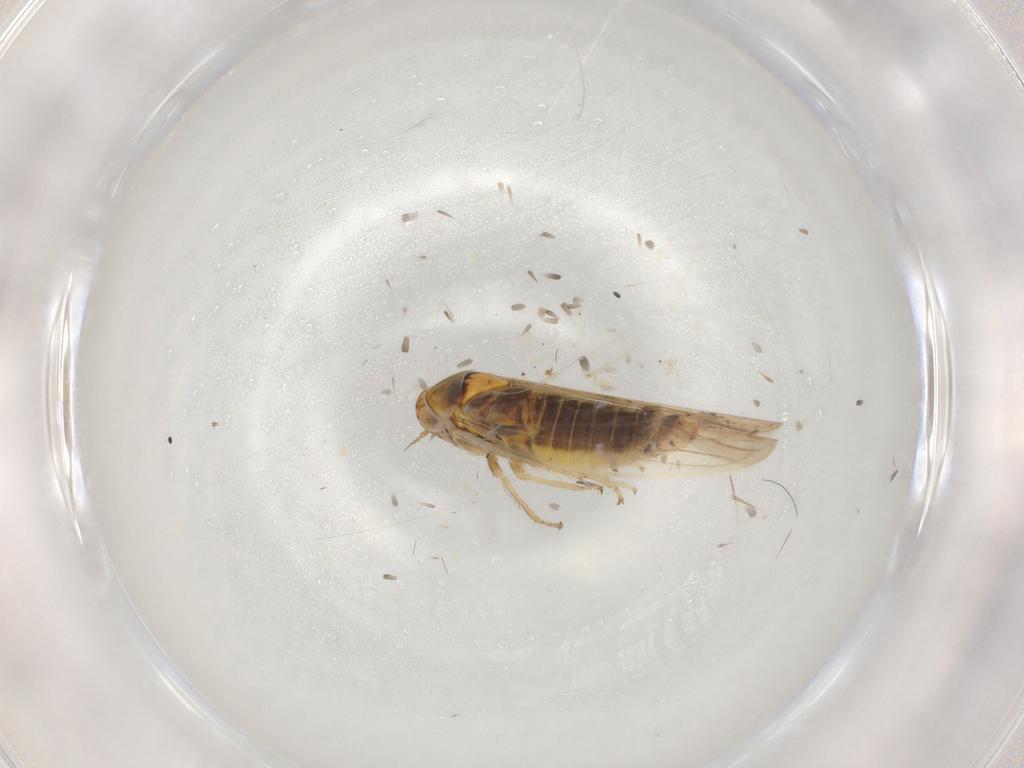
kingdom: Animalia
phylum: Arthropoda
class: Insecta
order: Hemiptera
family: Cicadellidae
